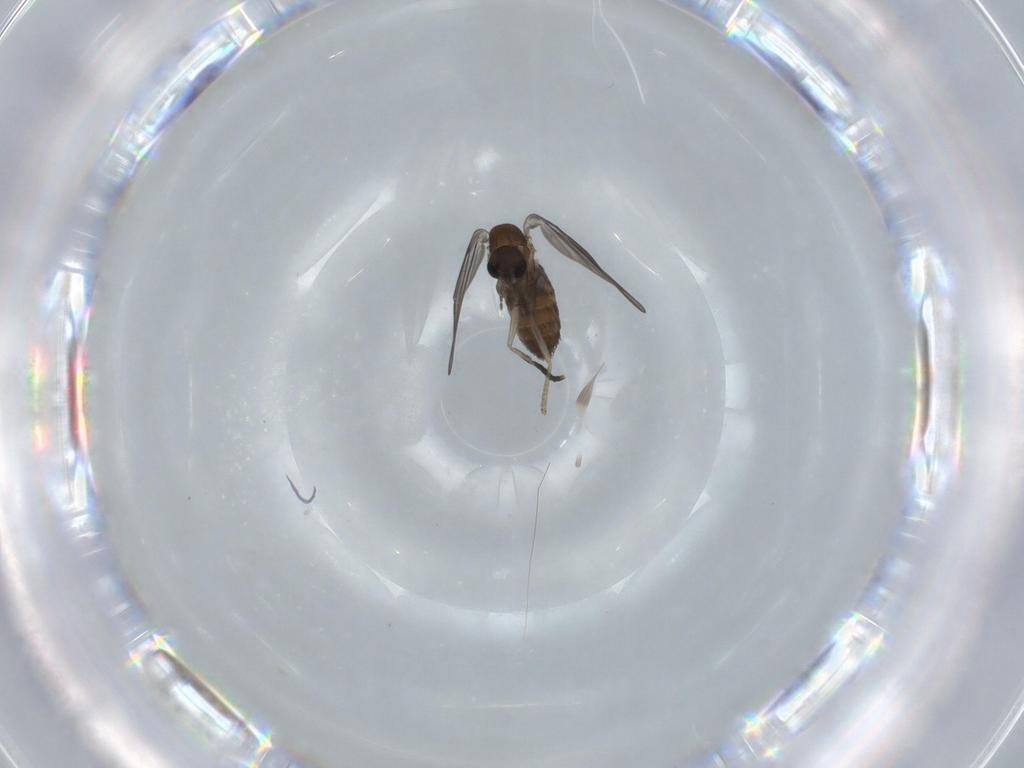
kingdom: Animalia
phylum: Arthropoda
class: Insecta
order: Diptera
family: Psychodidae
